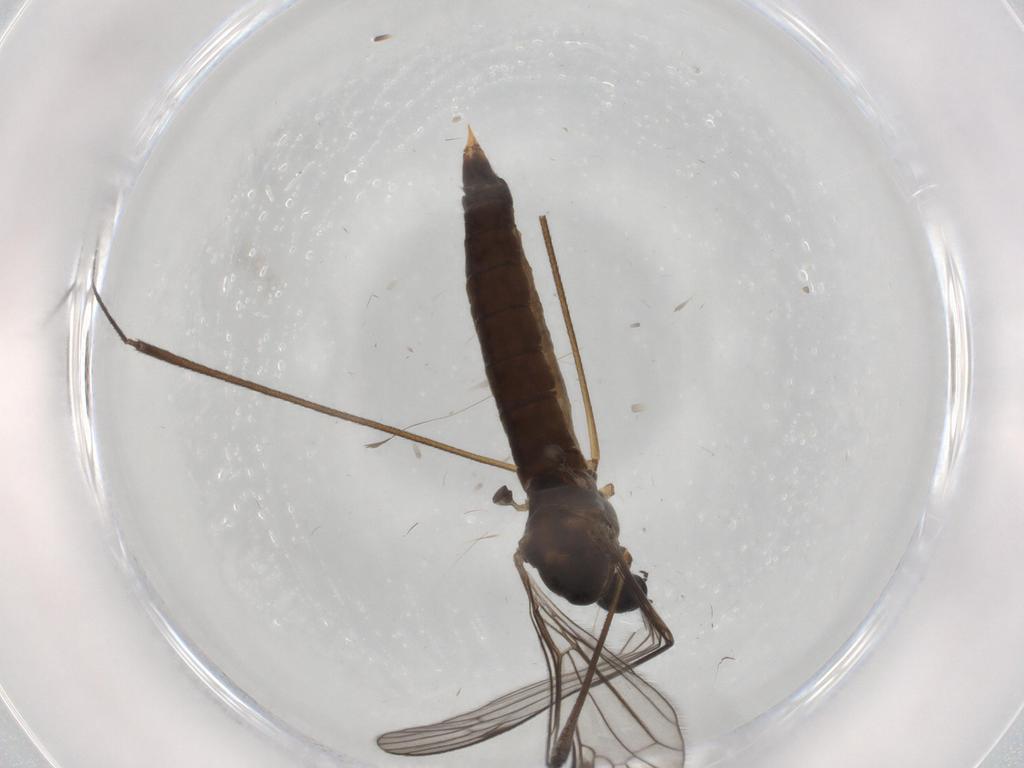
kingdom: Animalia
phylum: Arthropoda
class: Insecta
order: Diptera
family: Limoniidae
